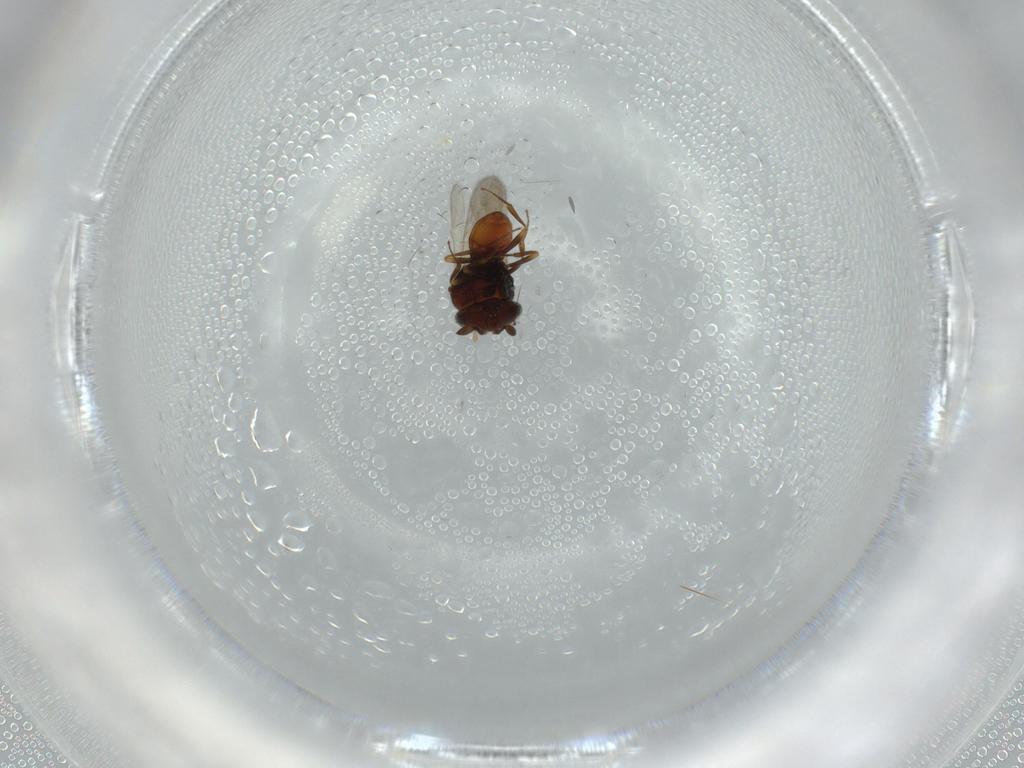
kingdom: Animalia
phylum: Arthropoda
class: Insecta
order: Hymenoptera
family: Scelionidae
